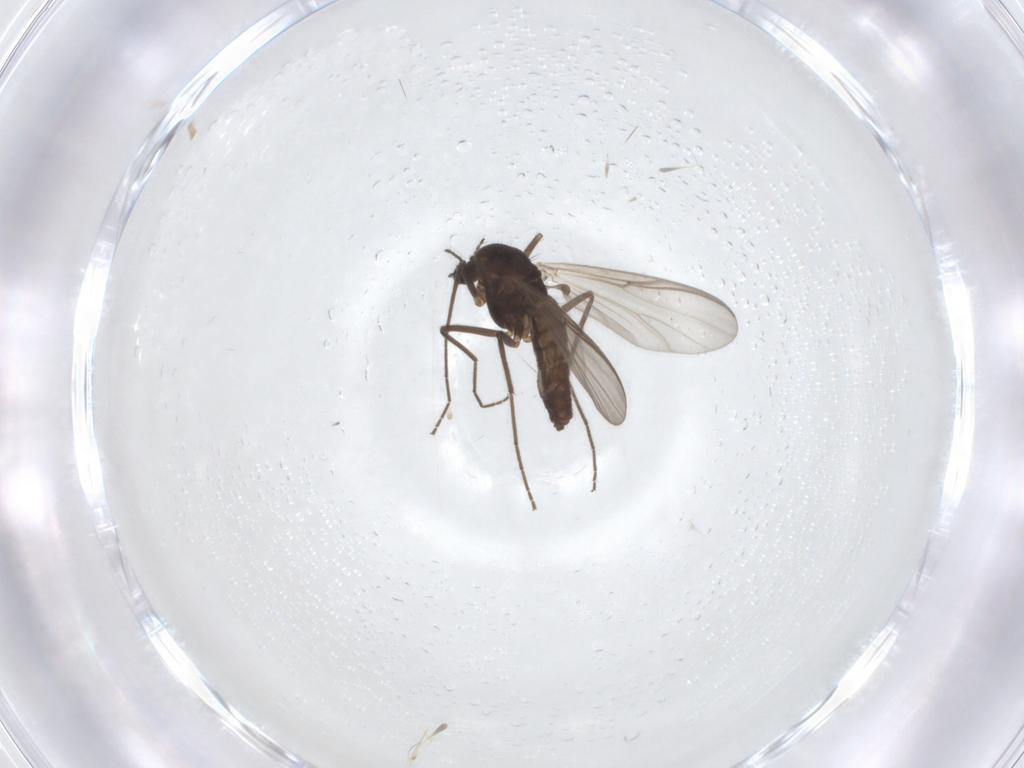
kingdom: Animalia
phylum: Arthropoda
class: Insecta
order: Diptera
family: Chironomidae
